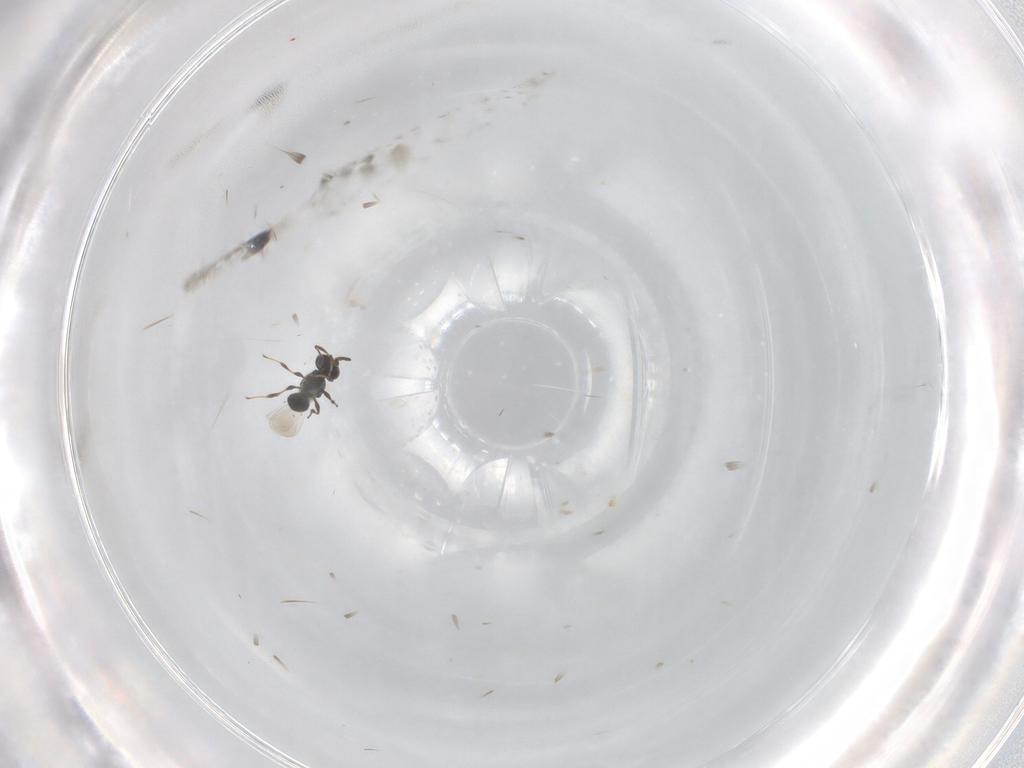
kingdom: Animalia
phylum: Arthropoda
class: Insecta
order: Hymenoptera
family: Platygastridae
